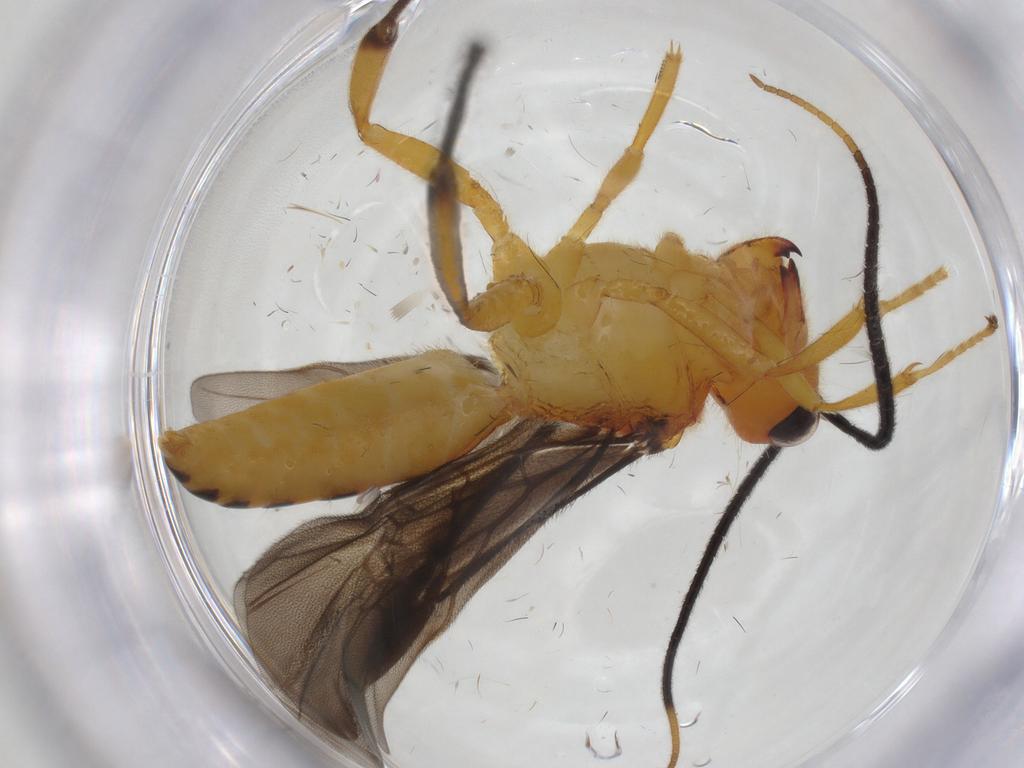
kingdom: Animalia
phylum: Arthropoda
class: Insecta
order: Hymenoptera
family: Braconidae
